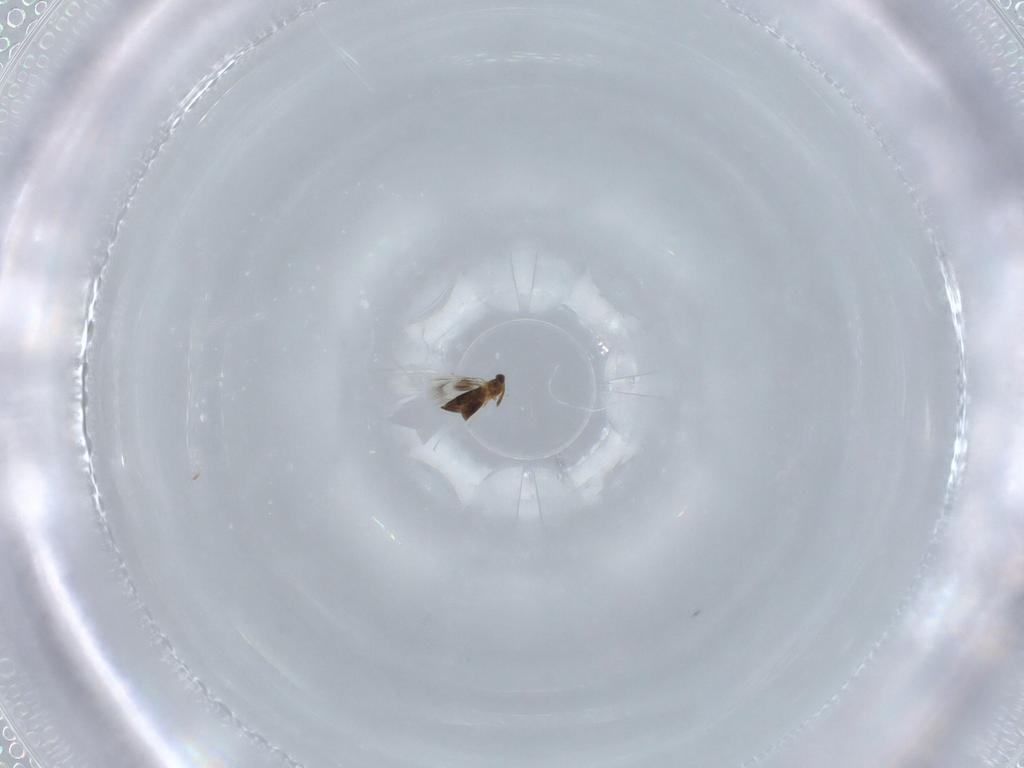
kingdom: Animalia
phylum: Arthropoda
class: Insecta
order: Hymenoptera
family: Signiphoridae
